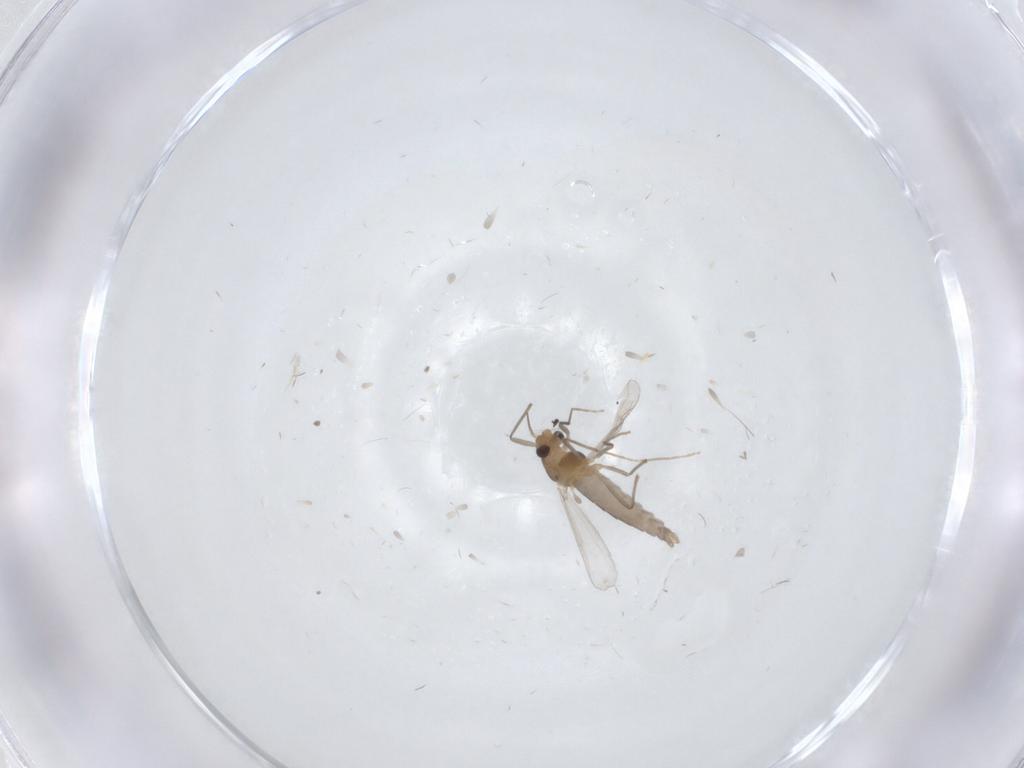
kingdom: Animalia
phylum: Arthropoda
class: Insecta
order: Diptera
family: Chironomidae
